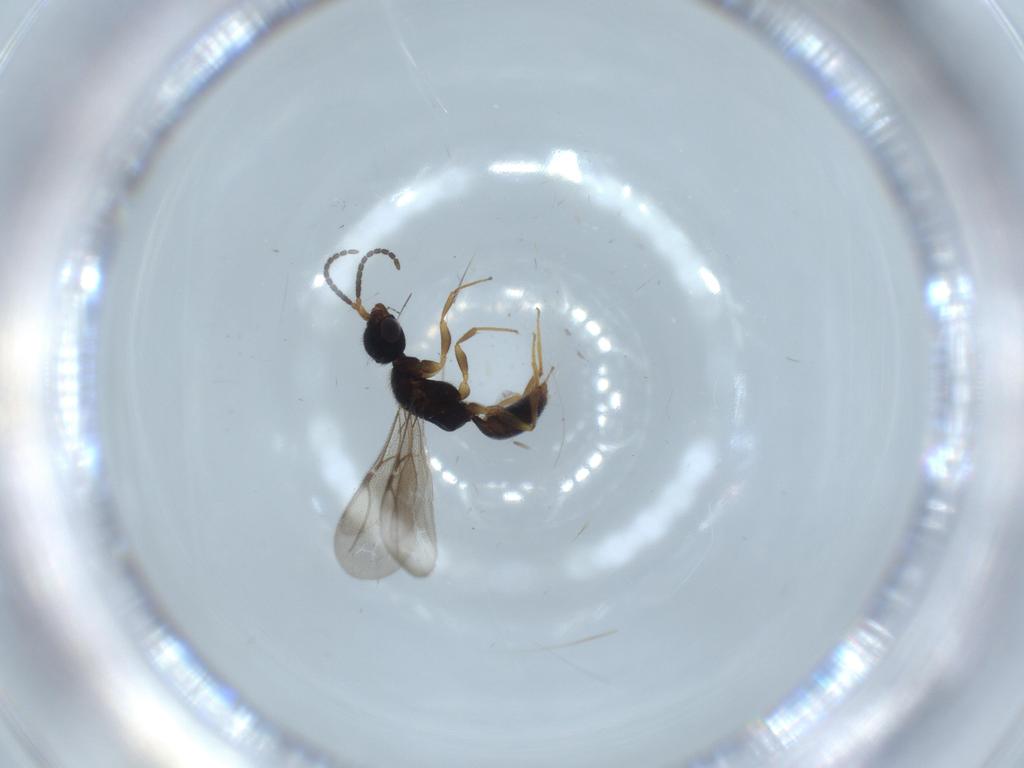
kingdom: Animalia
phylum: Arthropoda
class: Insecta
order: Hymenoptera
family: Bethylidae
